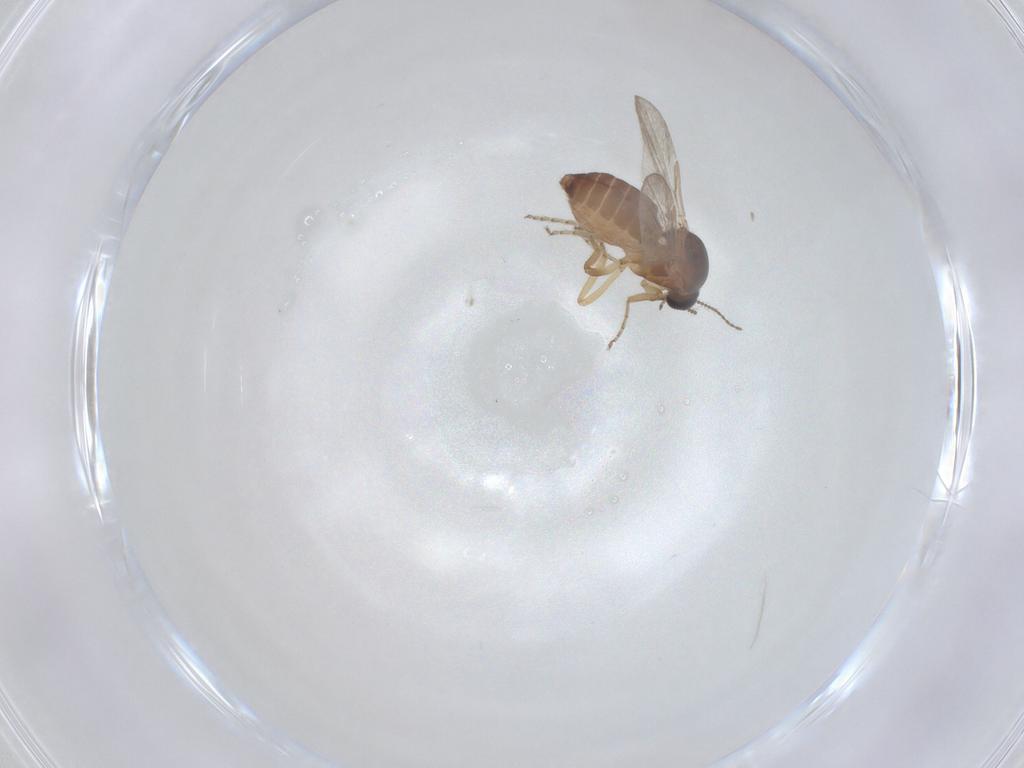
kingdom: Animalia
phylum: Arthropoda
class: Insecta
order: Diptera
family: Ceratopogonidae
